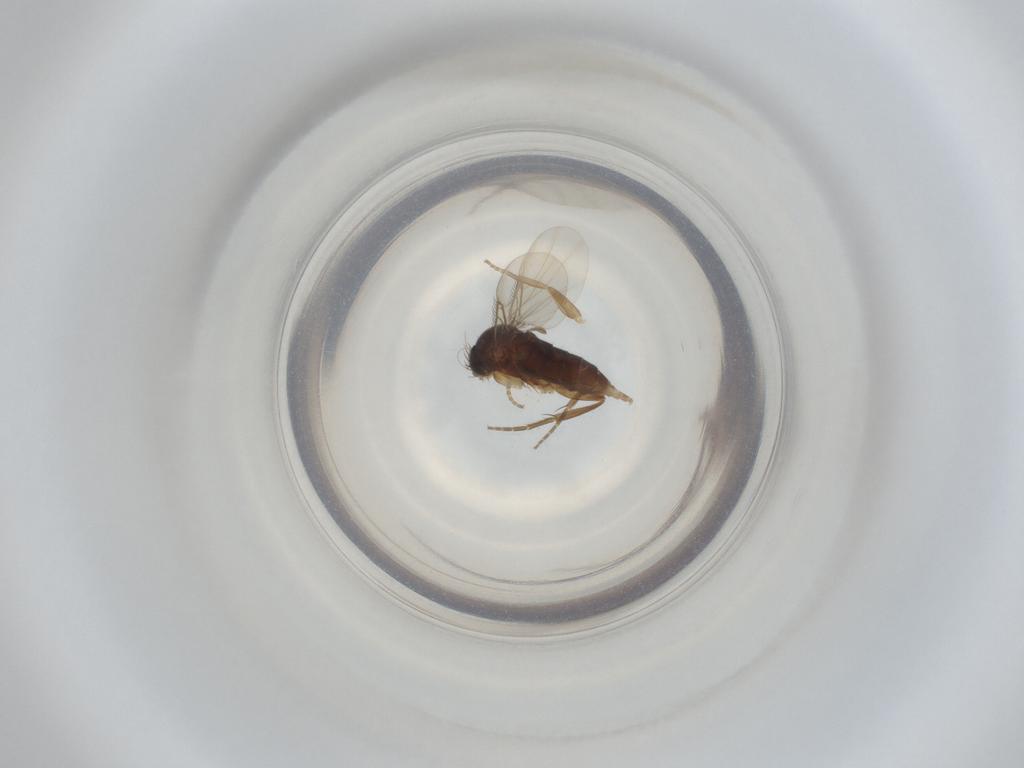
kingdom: Animalia
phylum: Arthropoda
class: Insecta
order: Diptera
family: Phoridae
